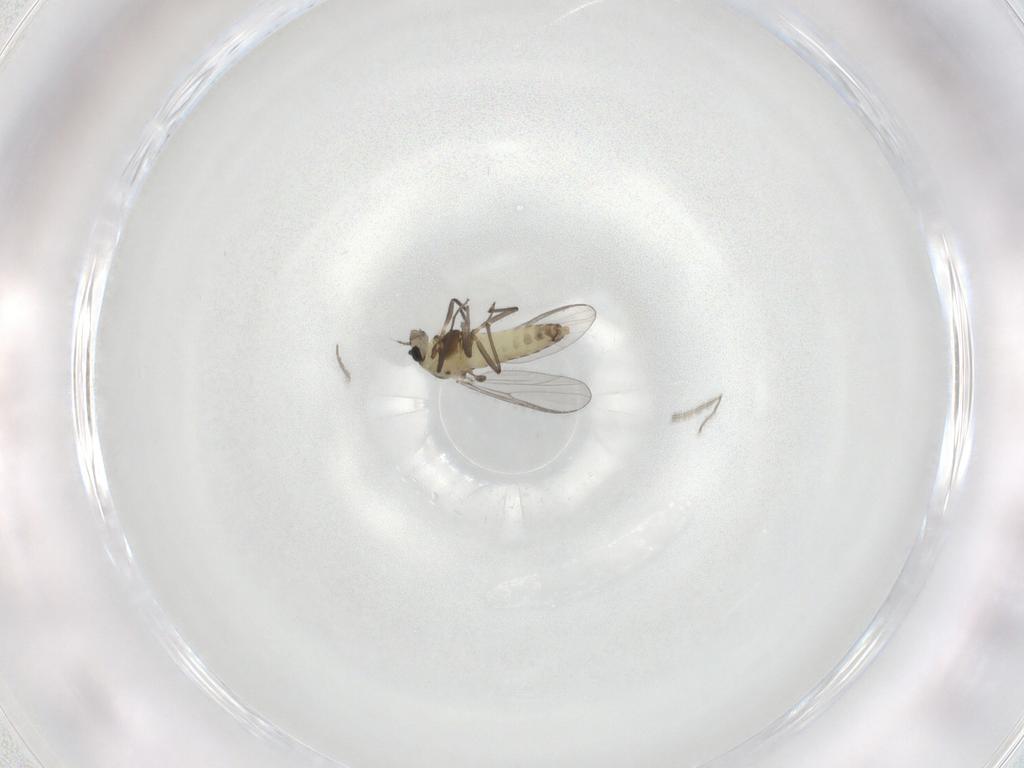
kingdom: Animalia
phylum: Arthropoda
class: Insecta
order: Diptera
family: Chironomidae
